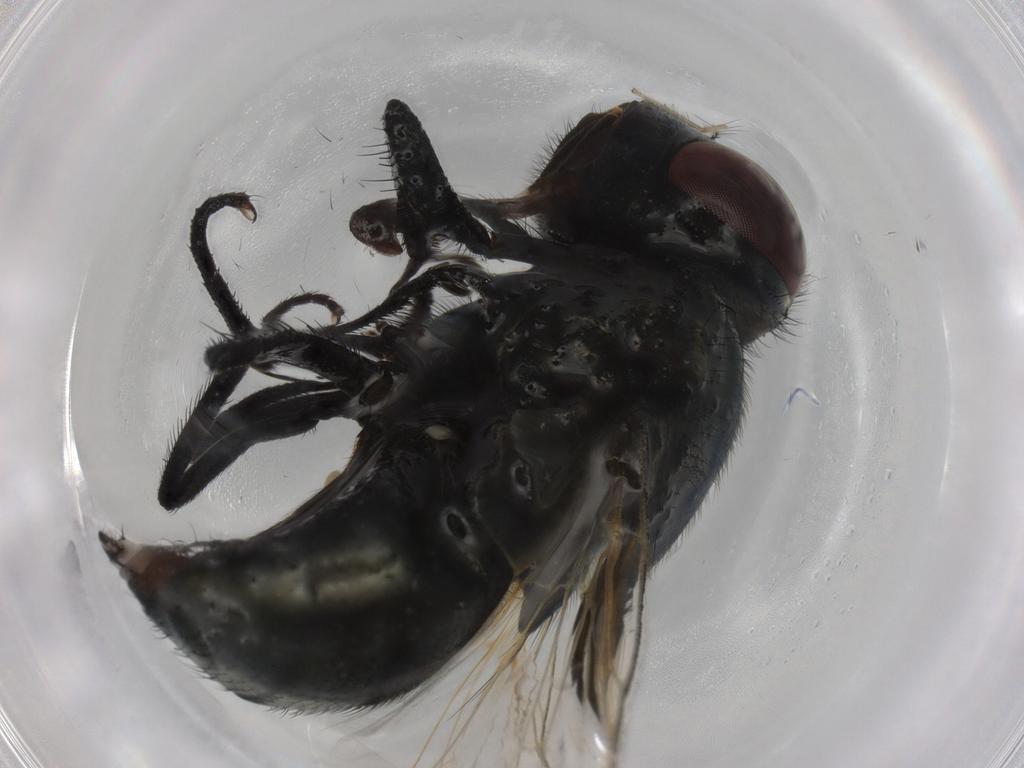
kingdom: Animalia
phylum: Arthropoda
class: Insecta
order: Diptera
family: Muscidae
